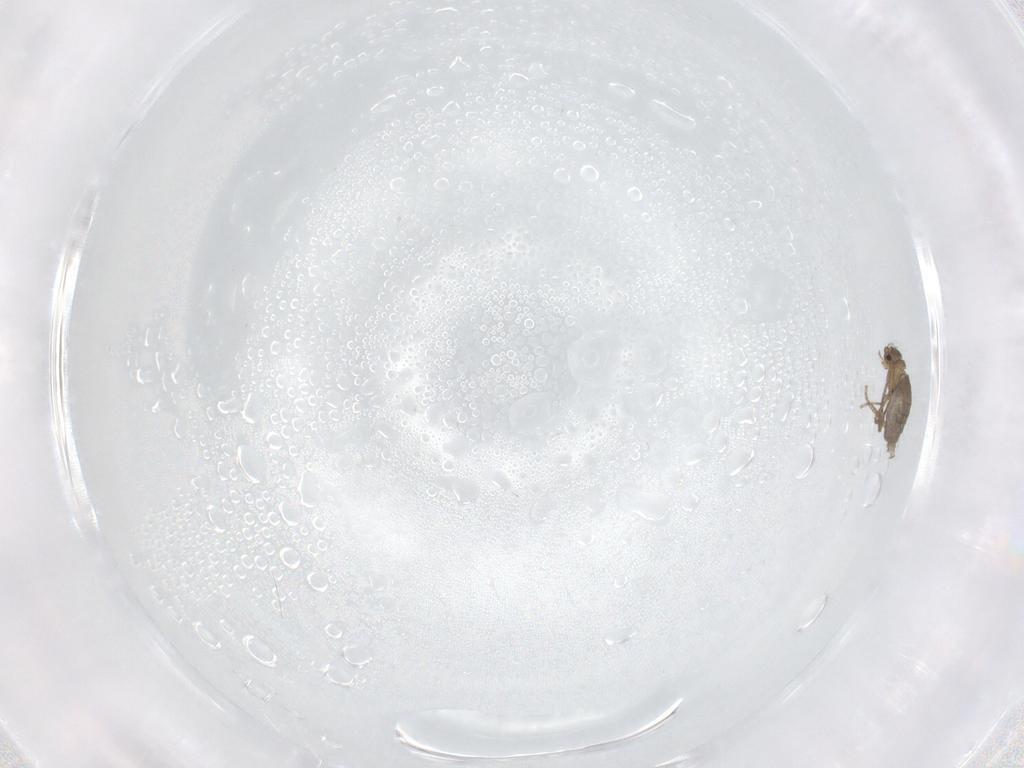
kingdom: Animalia
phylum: Arthropoda
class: Insecta
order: Diptera
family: Phoridae
